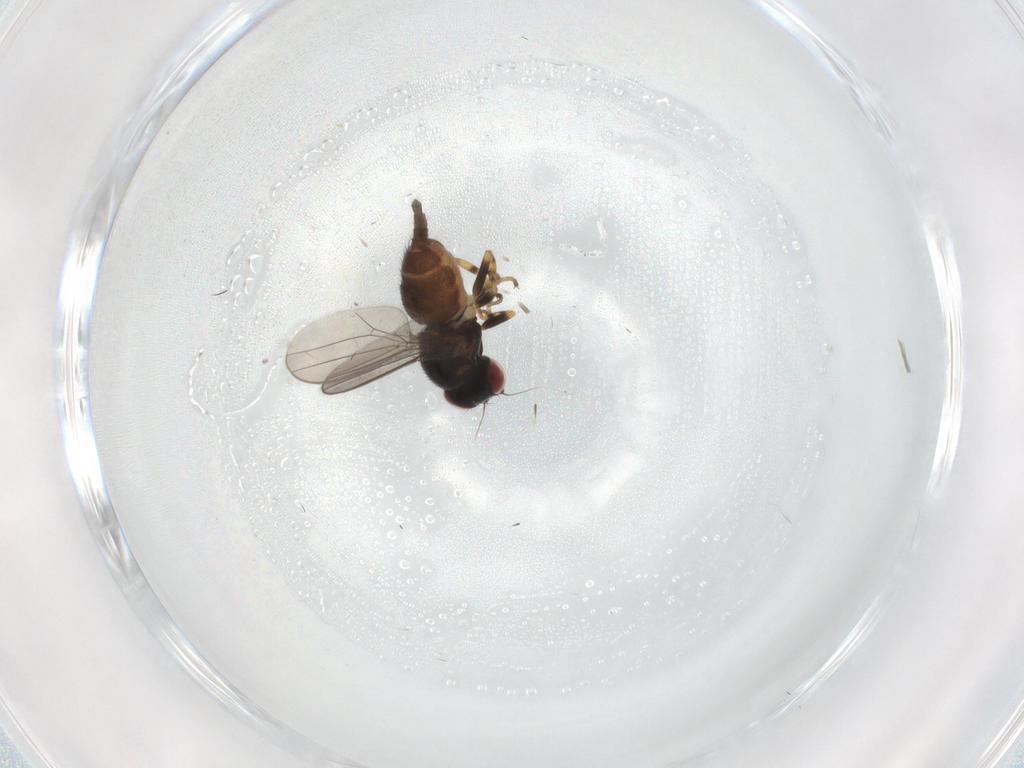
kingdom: Animalia
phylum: Arthropoda
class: Insecta
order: Diptera
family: Chloropidae
